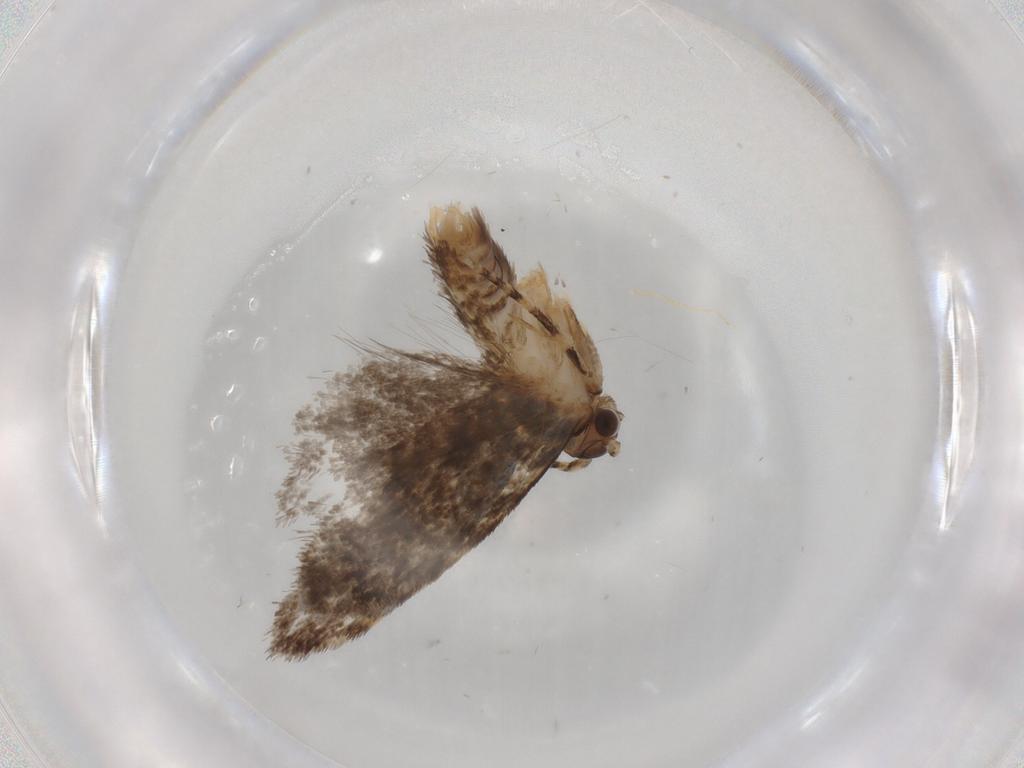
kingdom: Animalia
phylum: Arthropoda
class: Insecta
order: Lepidoptera
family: Dryadaulidae
